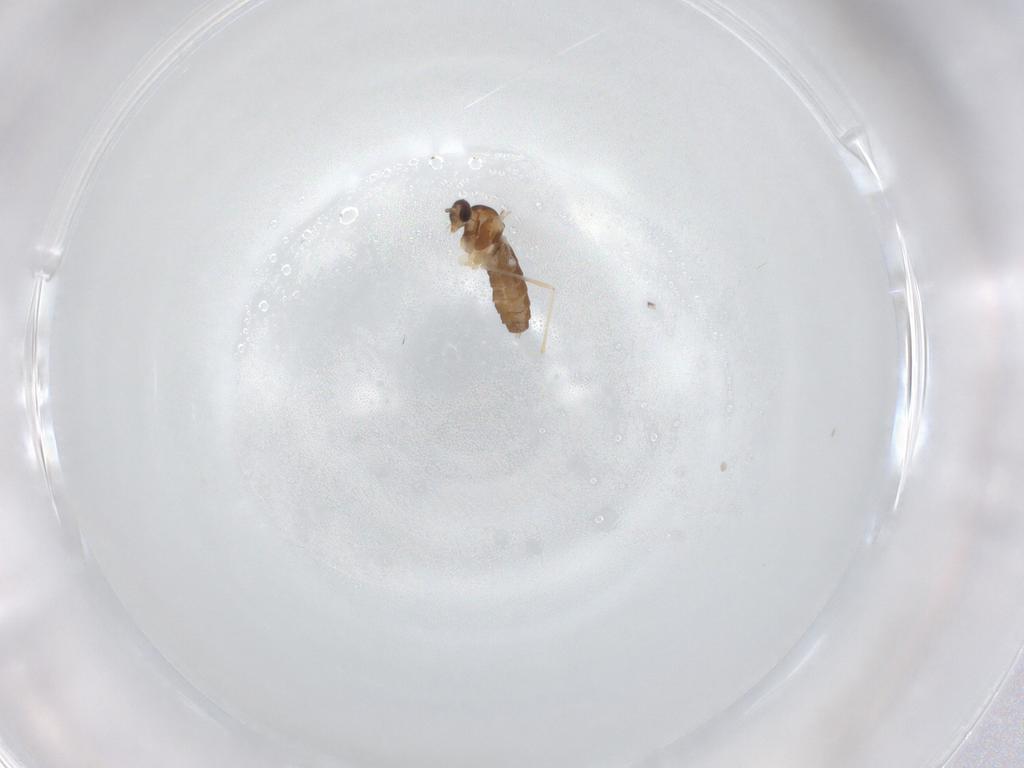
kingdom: Animalia
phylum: Arthropoda
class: Insecta
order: Diptera
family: Cecidomyiidae
